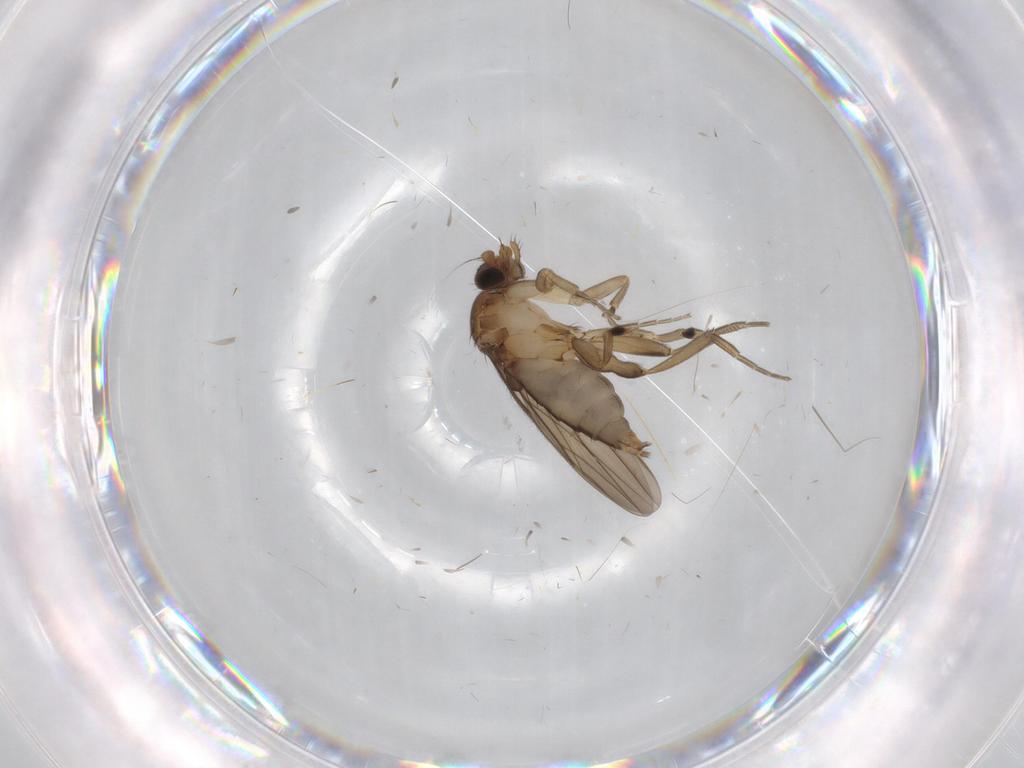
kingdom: Animalia
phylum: Arthropoda
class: Insecta
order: Diptera
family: Phoridae
